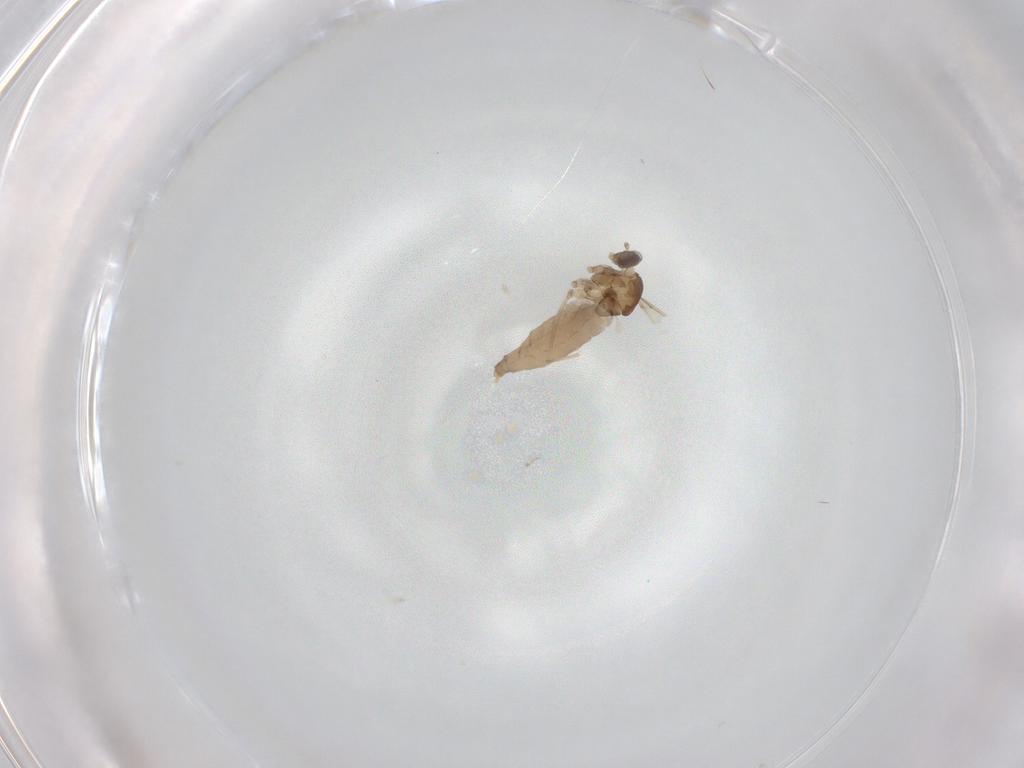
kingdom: Animalia
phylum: Arthropoda
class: Insecta
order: Diptera
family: Cecidomyiidae
